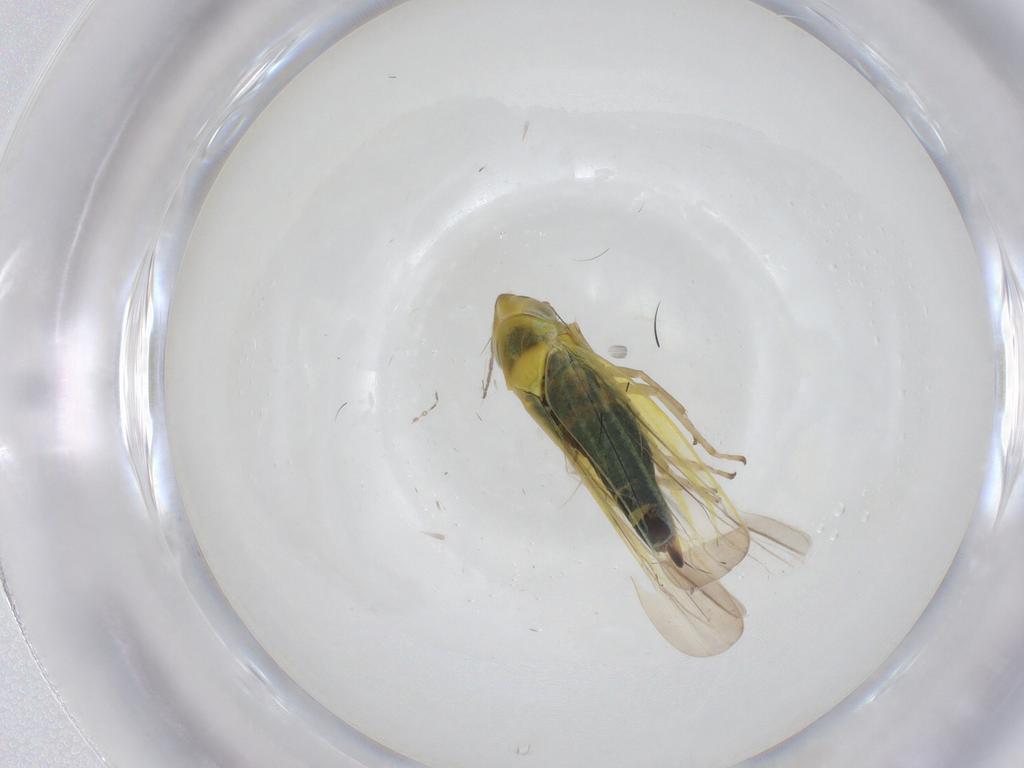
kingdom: Animalia
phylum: Arthropoda
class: Insecta
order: Hemiptera
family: Cicadellidae
